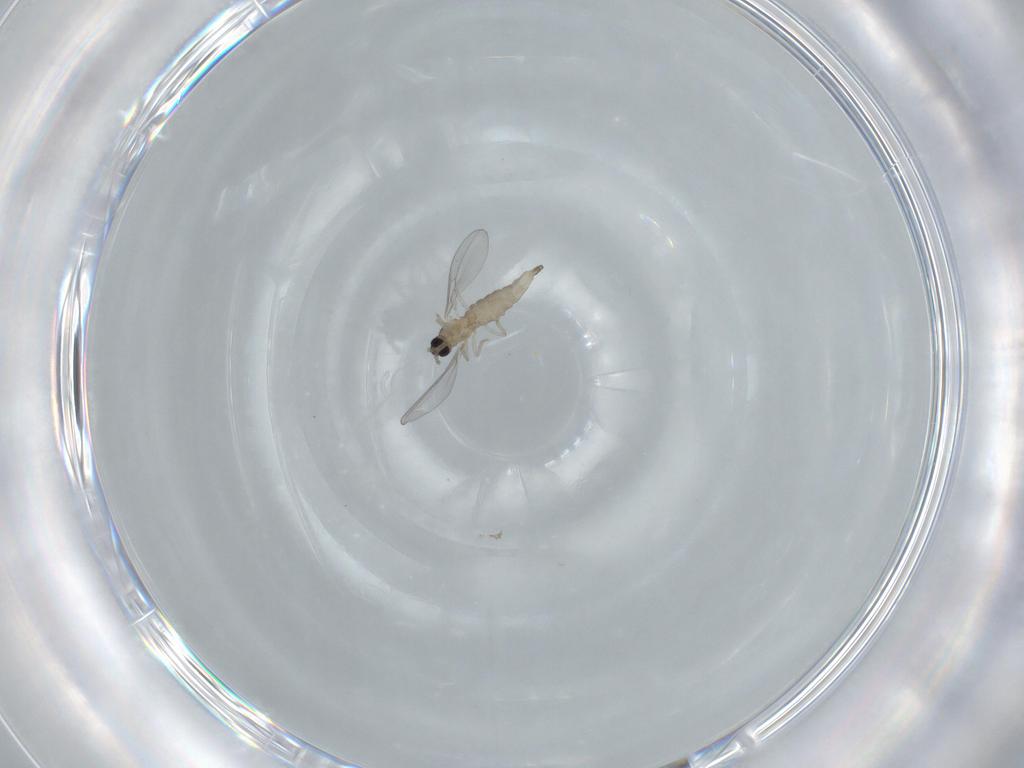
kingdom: Animalia
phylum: Arthropoda
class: Insecta
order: Diptera
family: Cecidomyiidae
